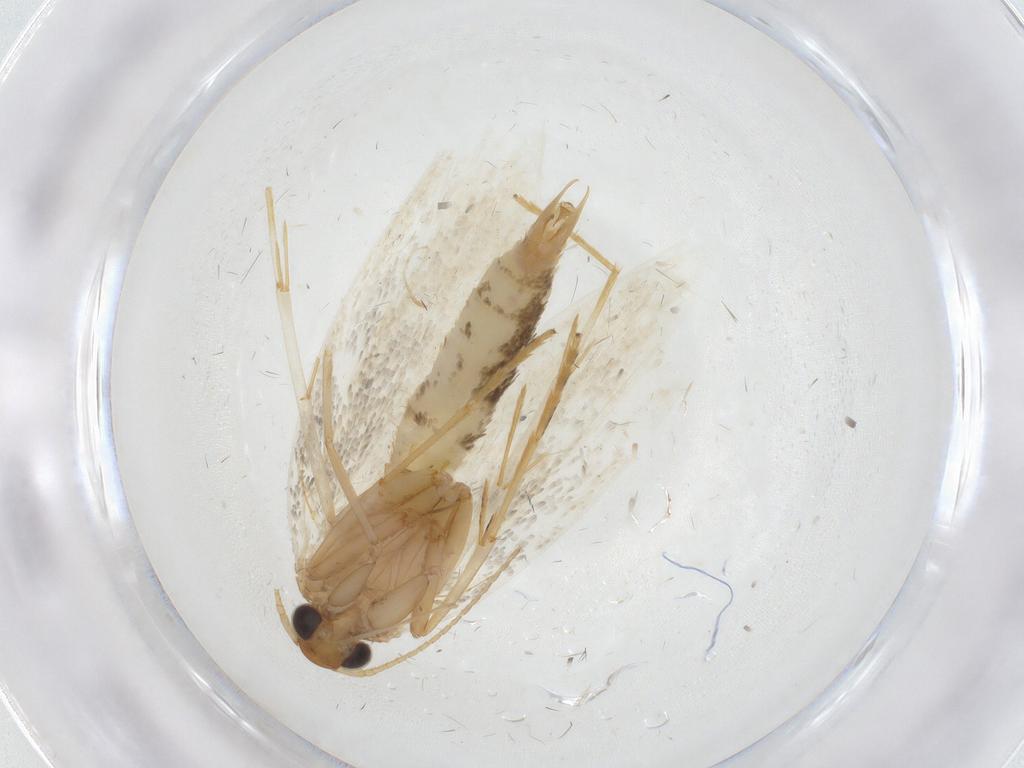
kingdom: Animalia
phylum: Arthropoda
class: Insecta
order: Lepidoptera
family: Oecophoridae
